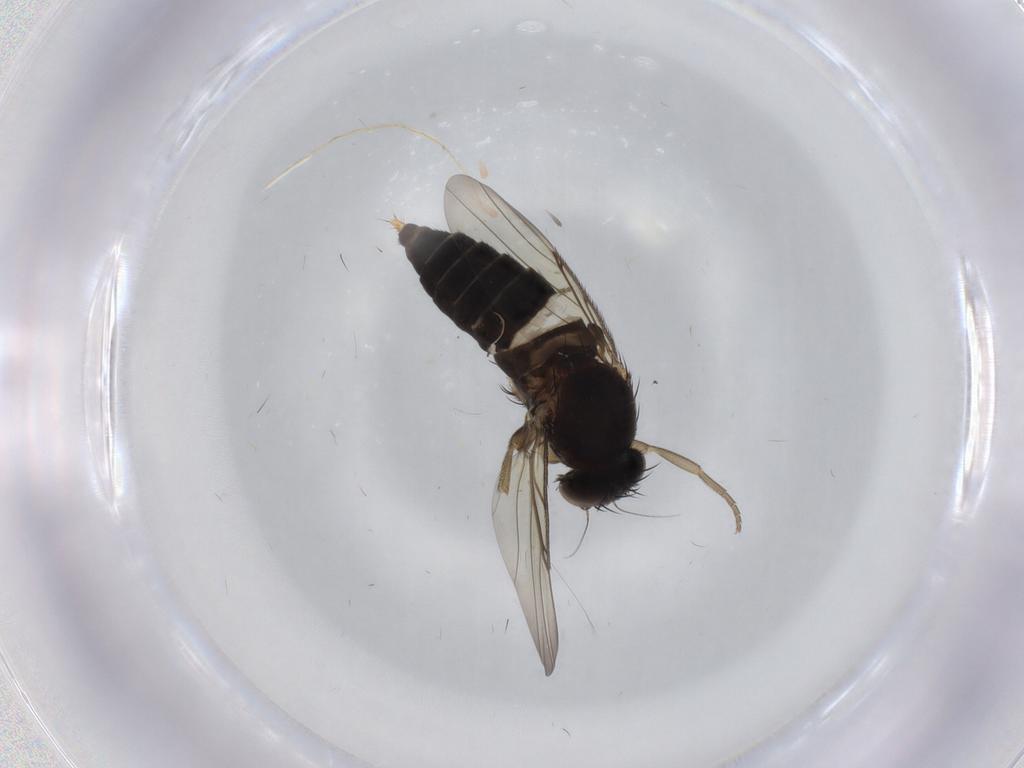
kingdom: Animalia
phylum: Arthropoda
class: Insecta
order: Diptera
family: Phoridae
